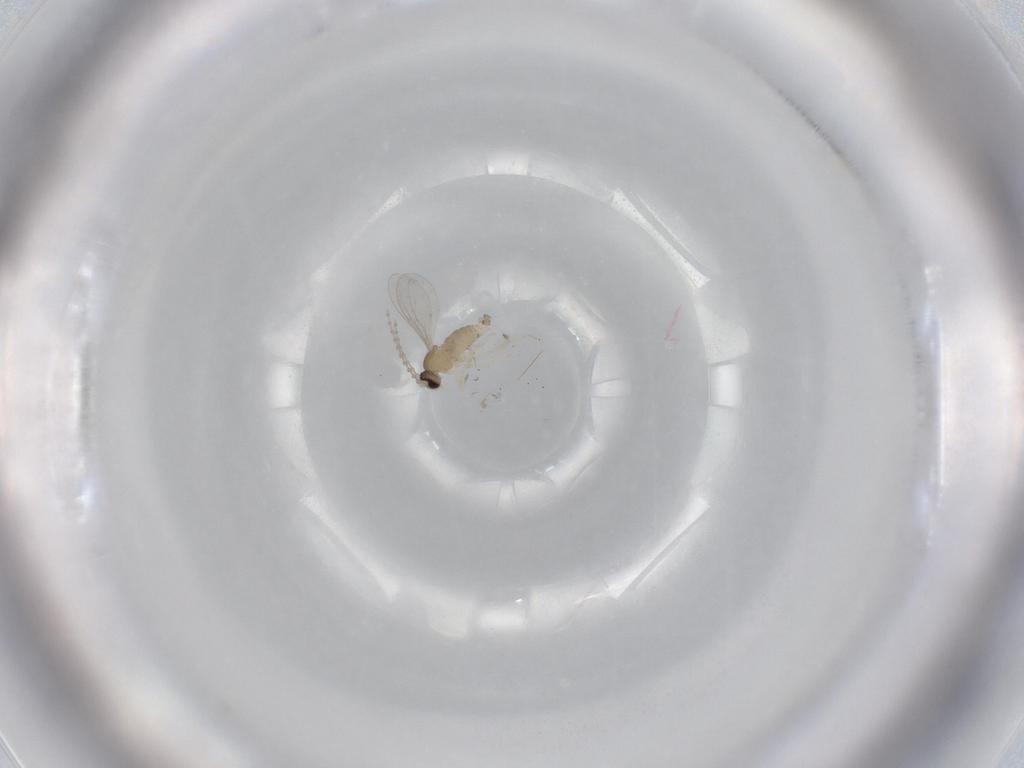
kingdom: Animalia
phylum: Arthropoda
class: Insecta
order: Diptera
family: Cecidomyiidae
